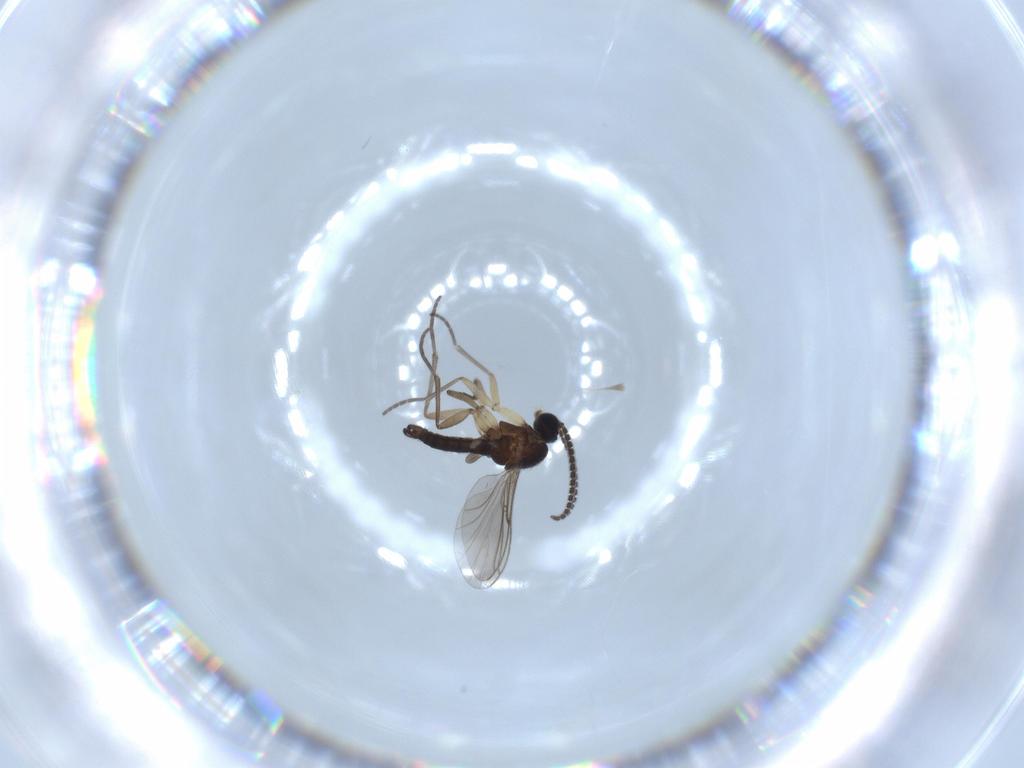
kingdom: Animalia
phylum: Arthropoda
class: Insecta
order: Diptera
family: Sciaridae
